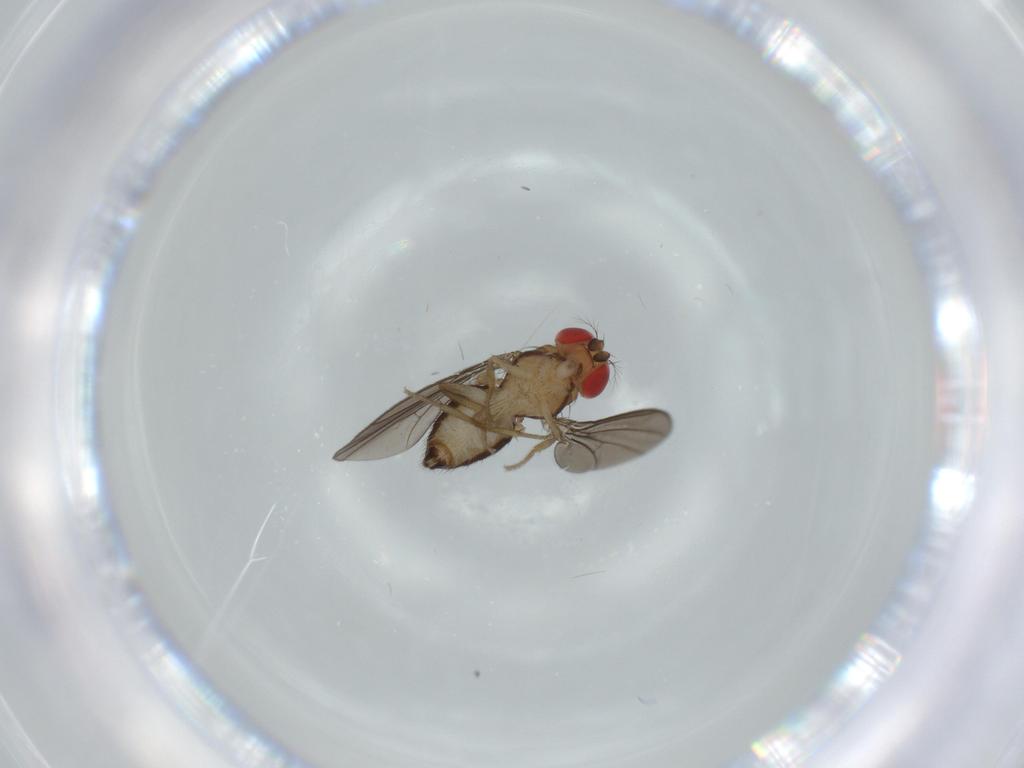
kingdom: Animalia
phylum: Arthropoda
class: Insecta
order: Diptera
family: Drosophilidae
